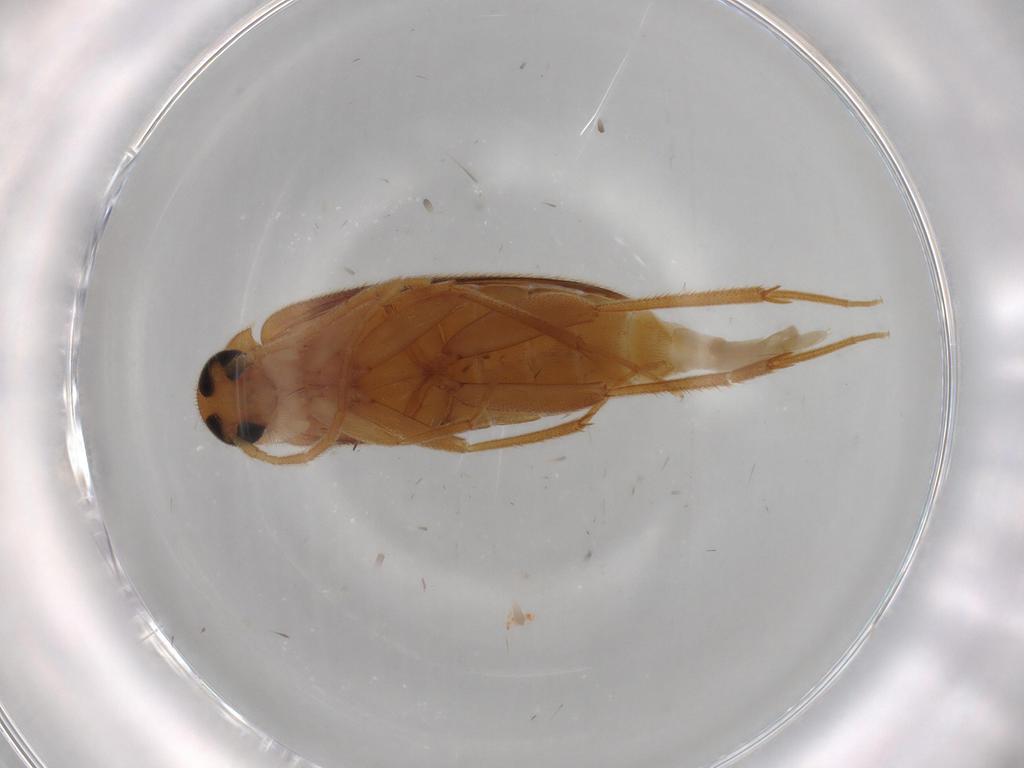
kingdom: Animalia
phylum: Arthropoda
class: Insecta
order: Coleoptera
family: Scraptiidae
